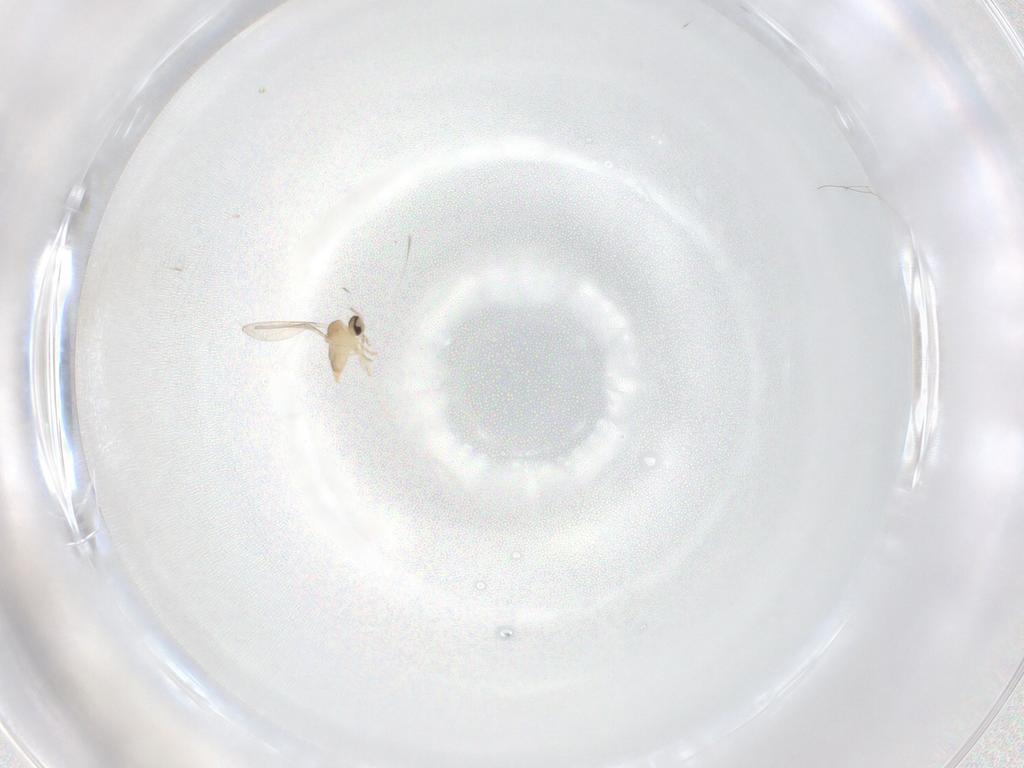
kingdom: Animalia
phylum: Arthropoda
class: Insecta
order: Diptera
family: Cecidomyiidae
